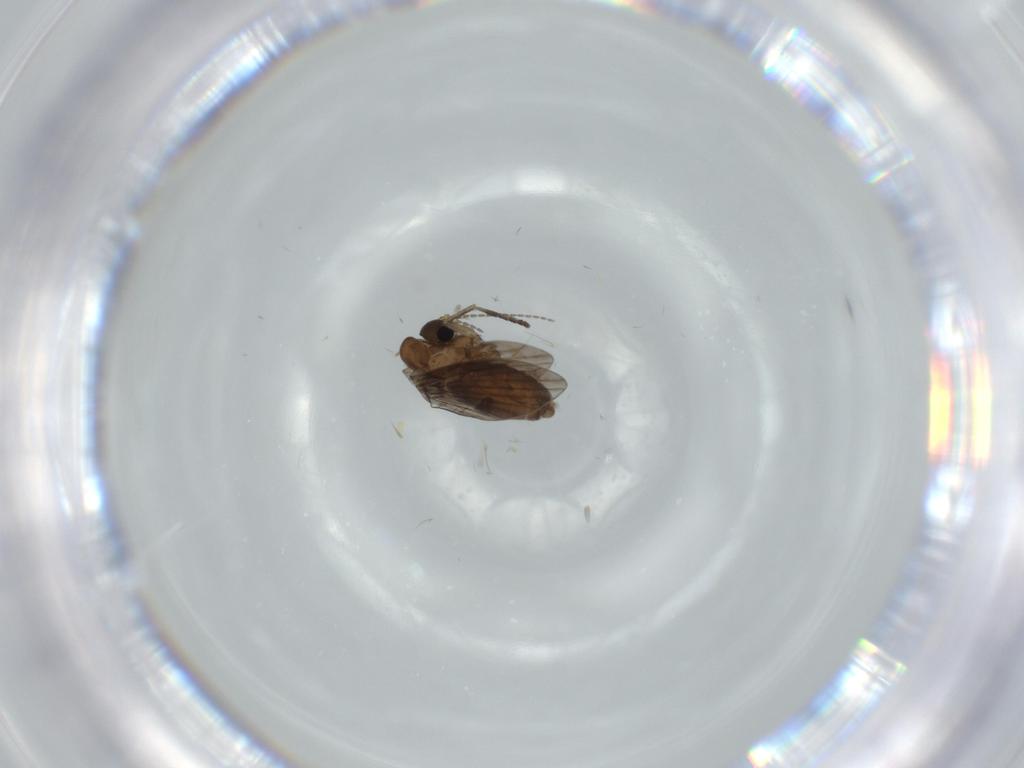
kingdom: Animalia
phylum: Arthropoda
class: Insecta
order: Diptera
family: Psychodidae
